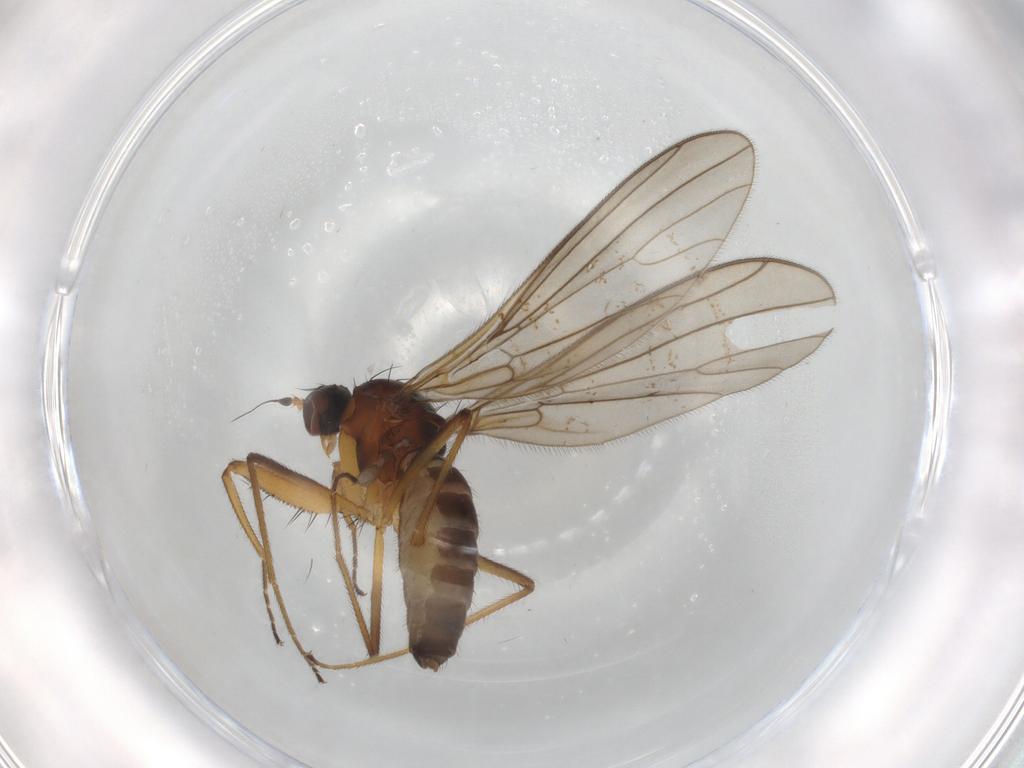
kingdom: Animalia
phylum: Arthropoda
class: Insecta
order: Diptera
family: Empididae
